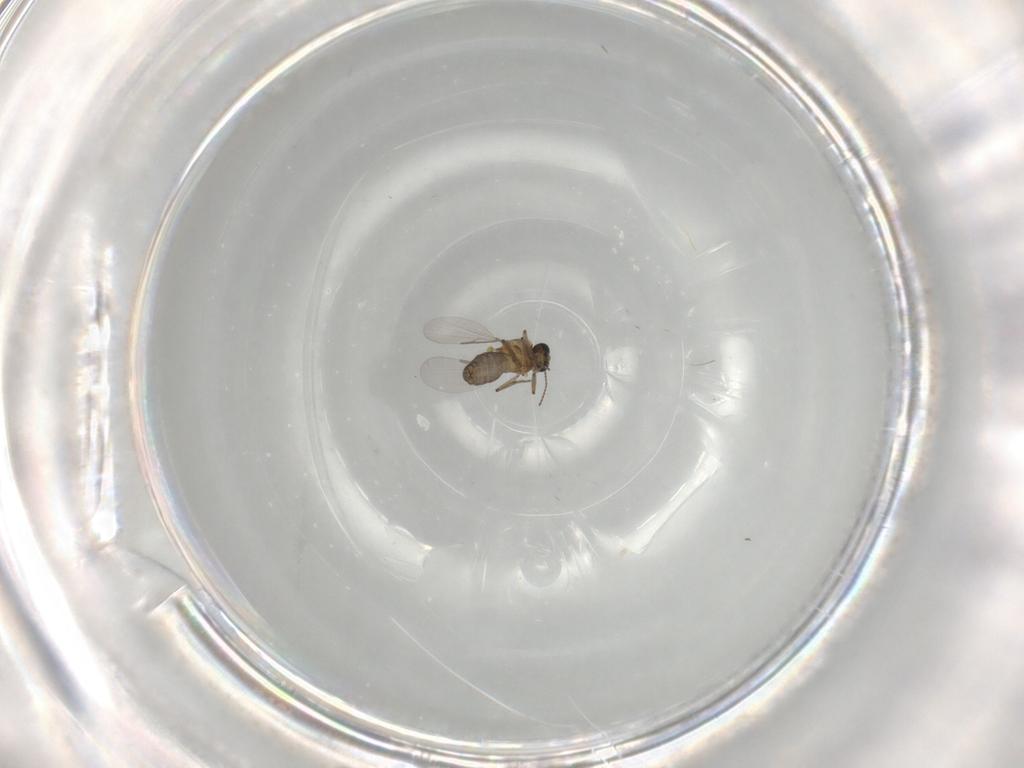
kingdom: Animalia
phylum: Arthropoda
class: Insecta
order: Diptera
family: Ceratopogonidae
